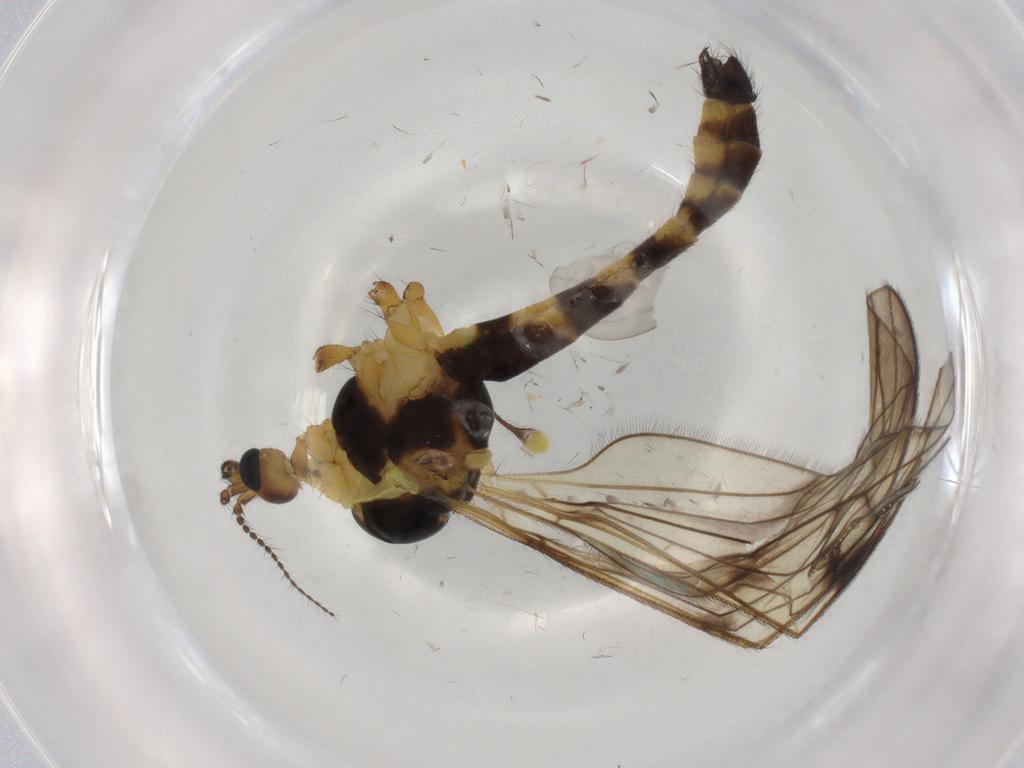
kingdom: Animalia
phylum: Arthropoda
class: Insecta
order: Diptera
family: Limoniidae
